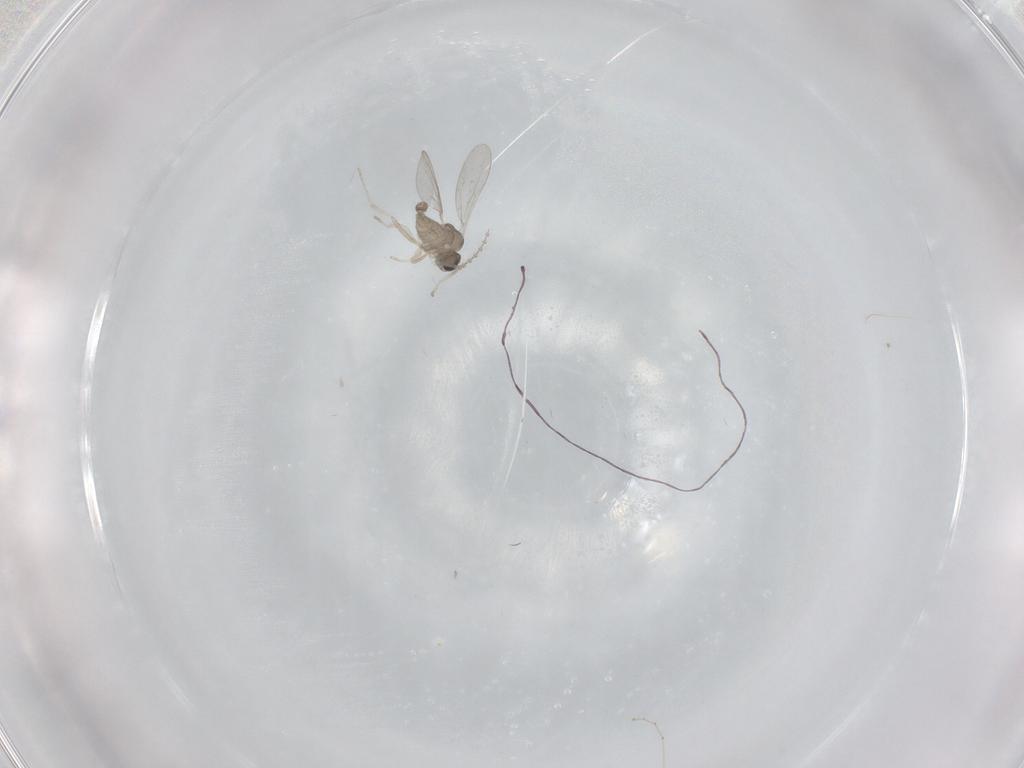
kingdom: Animalia
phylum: Arthropoda
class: Insecta
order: Diptera
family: Cecidomyiidae
